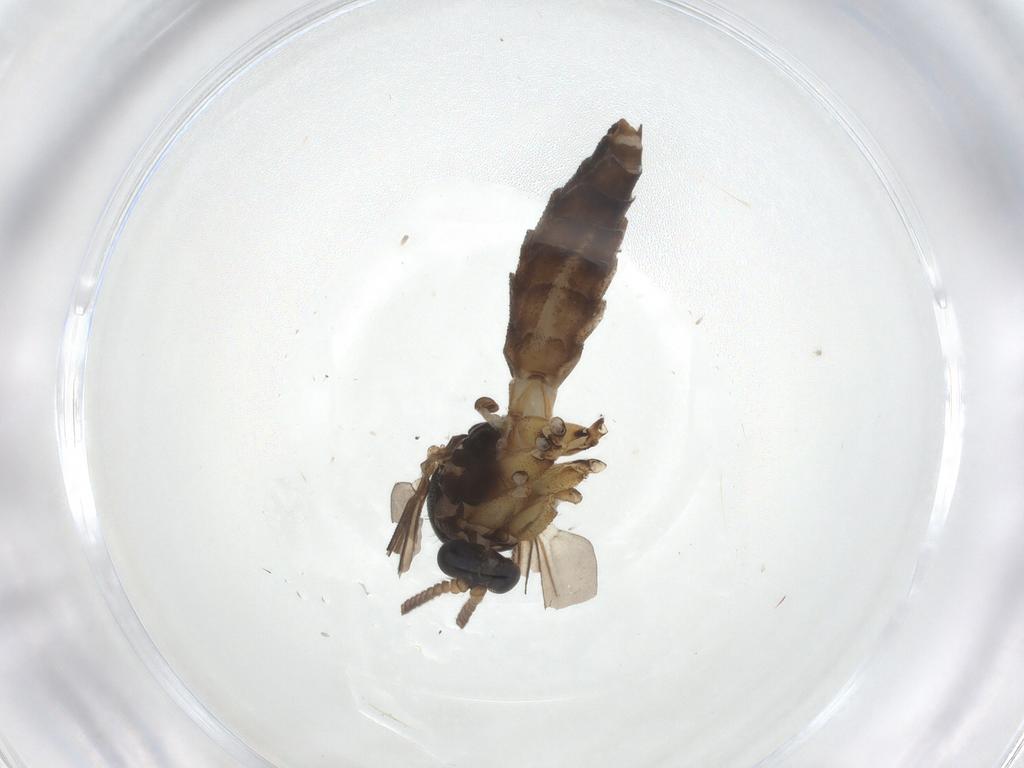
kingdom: Animalia
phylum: Arthropoda
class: Insecta
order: Diptera
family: Mycetophilidae
